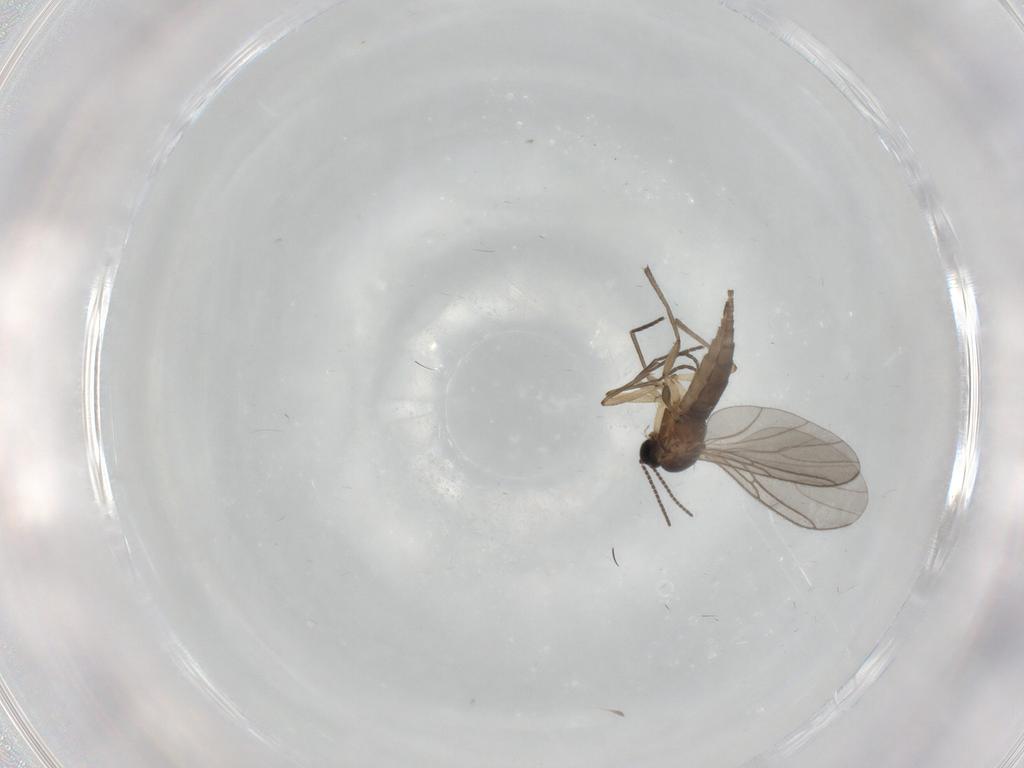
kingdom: Animalia
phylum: Arthropoda
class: Insecta
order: Diptera
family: Sciaridae
